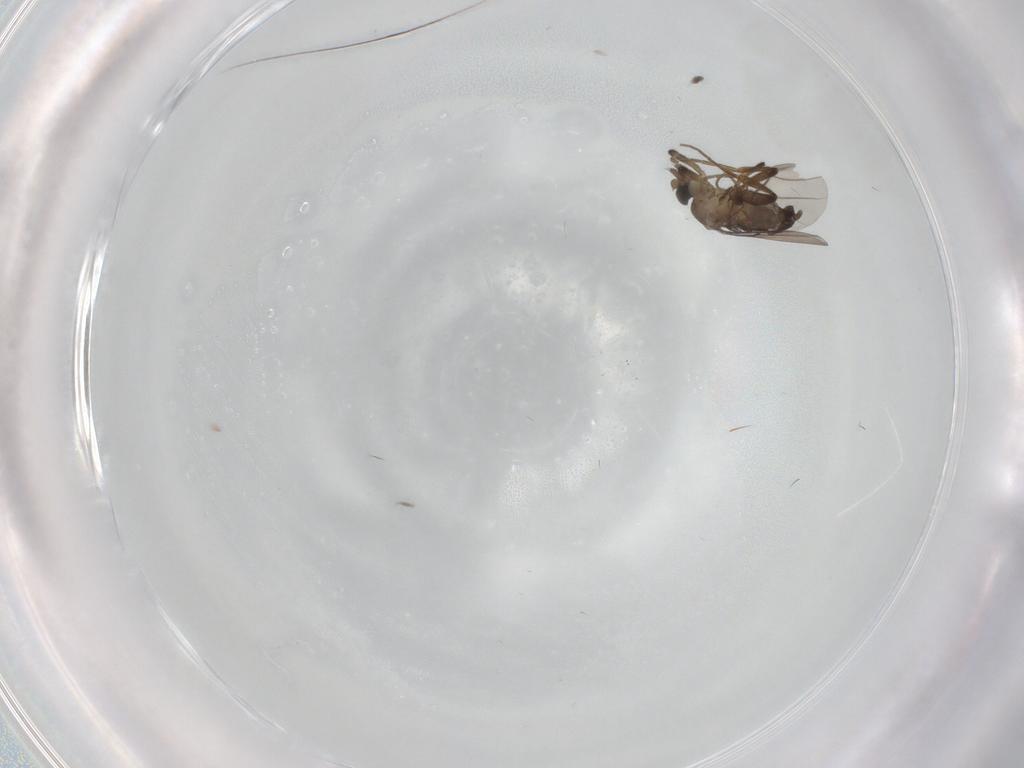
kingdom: Animalia
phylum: Arthropoda
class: Insecta
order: Diptera
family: Phoridae
